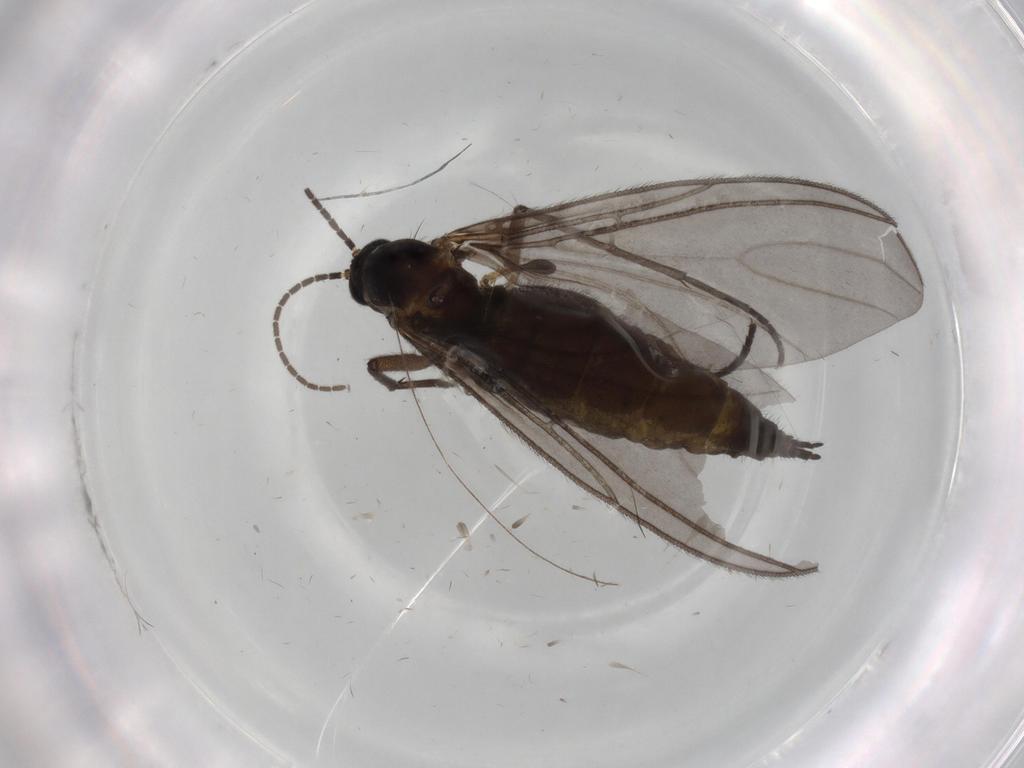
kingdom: Animalia
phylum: Arthropoda
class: Insecta
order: Diptera
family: Sciaridae
